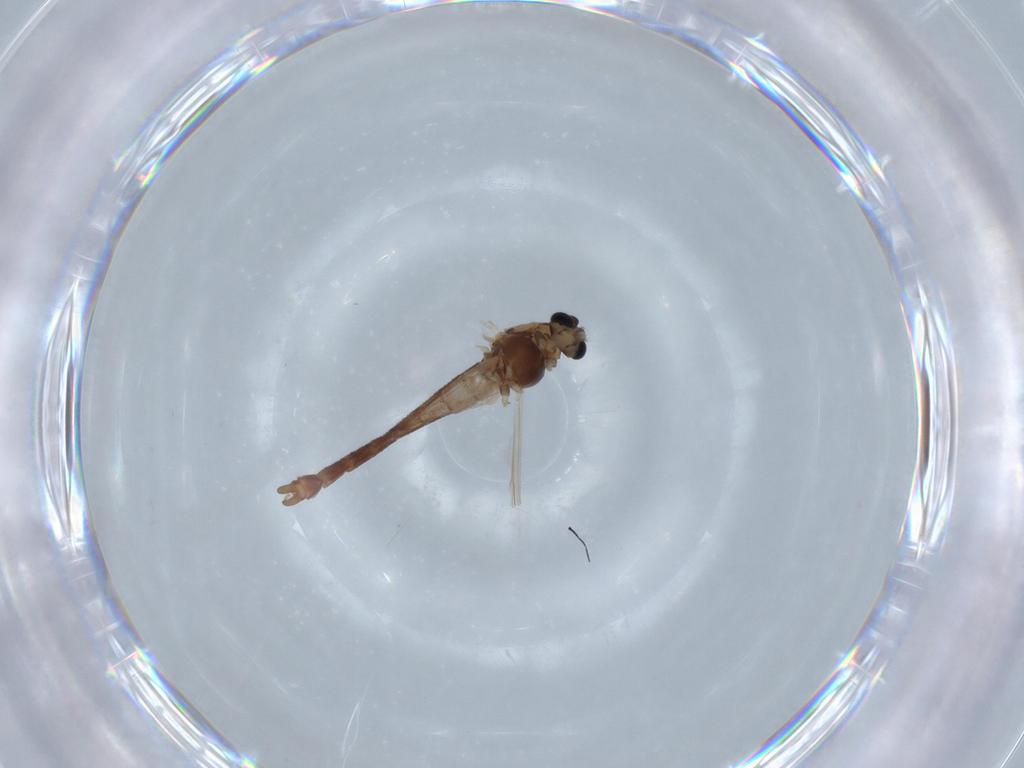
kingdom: Animalia
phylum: Arthropoda
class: Insecta
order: Diptera
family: Chironomidae
